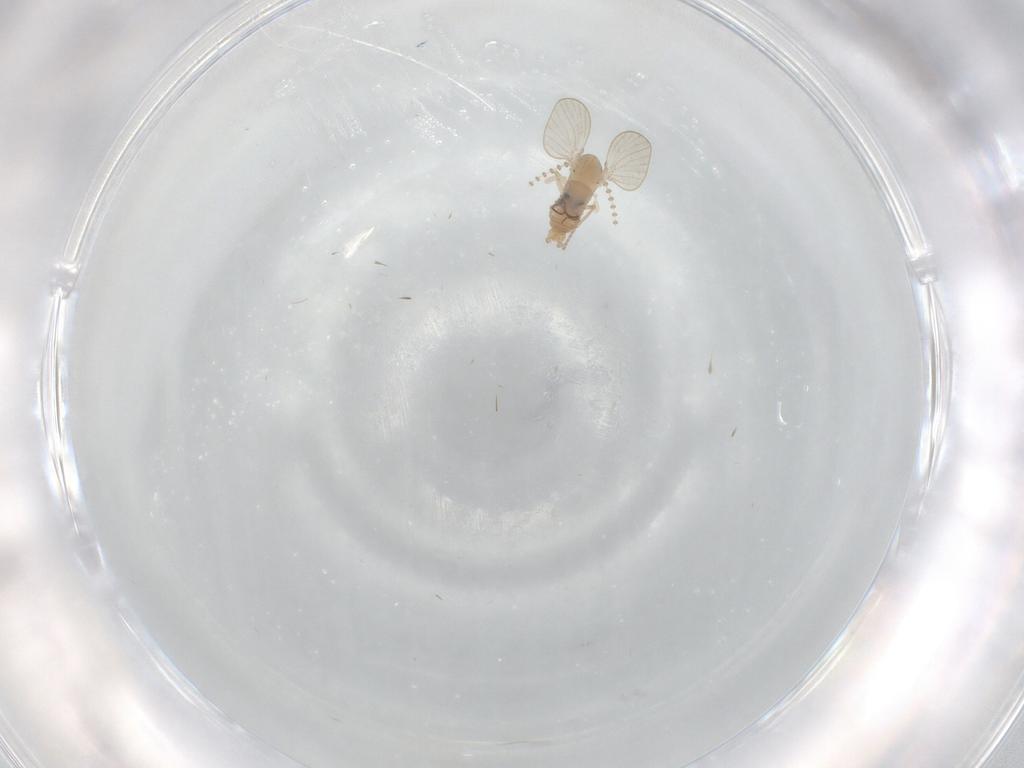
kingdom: Animalia
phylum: Arthropoda
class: Insecta
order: Diptera
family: Psychodidae
